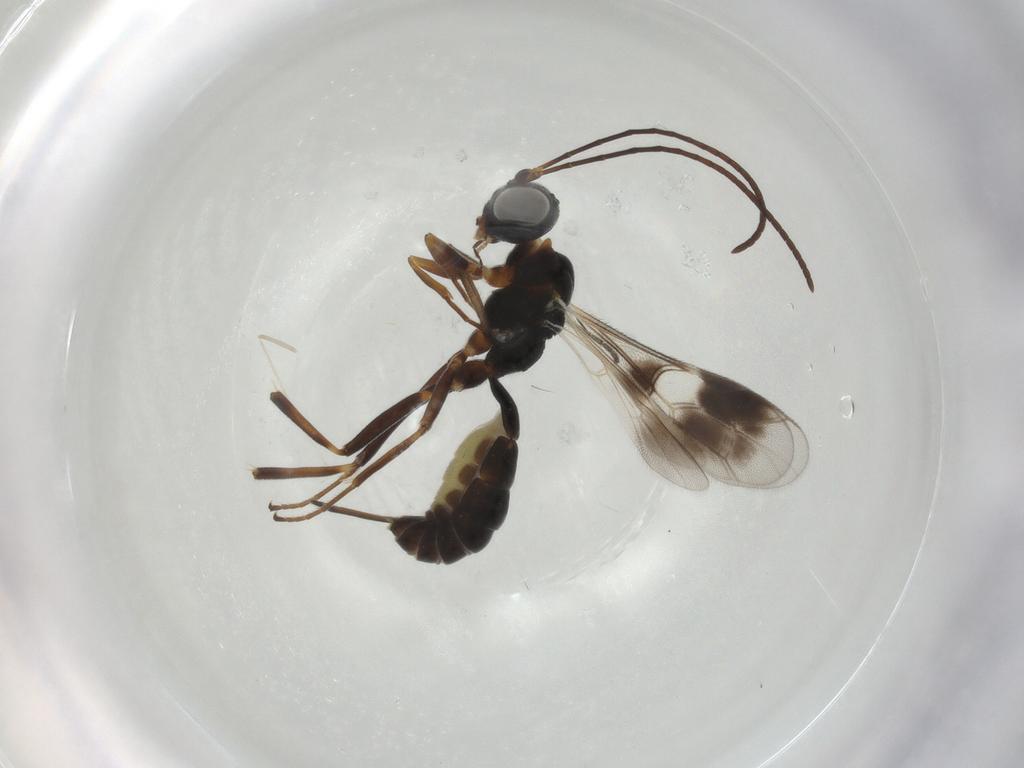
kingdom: Animalia
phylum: Arthropoda
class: Insecta
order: Hymenoptera
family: Ichneumonidae
